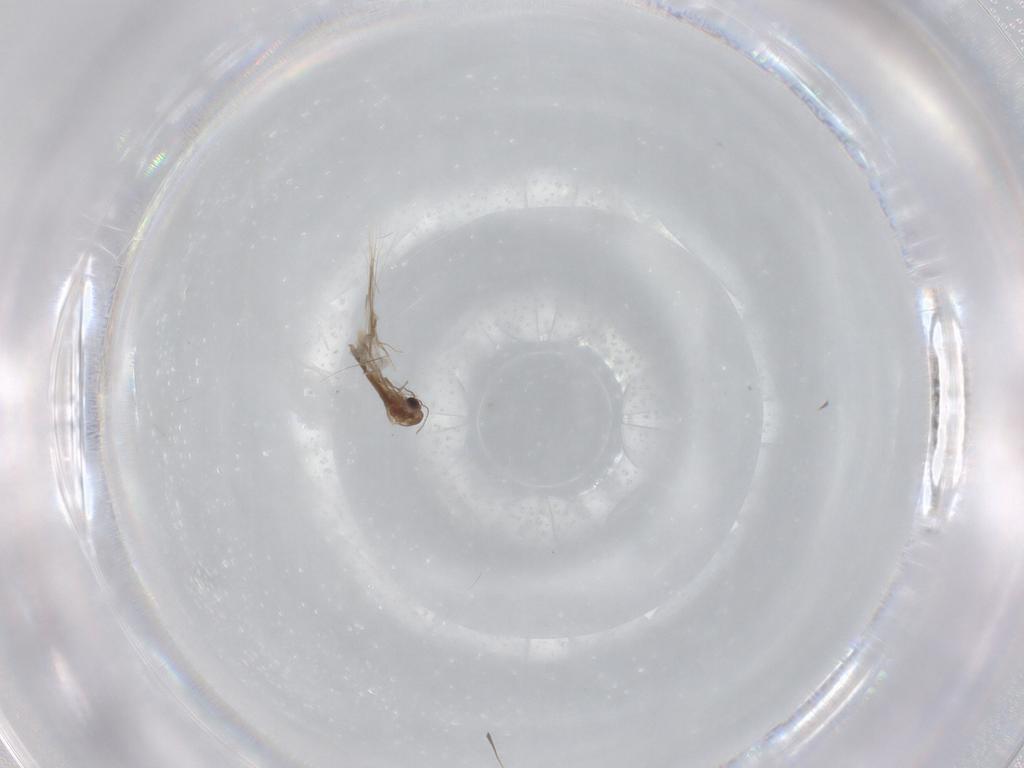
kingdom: Animalia
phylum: Arthropoda
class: Insecta
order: Diptera
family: Chironomidae
